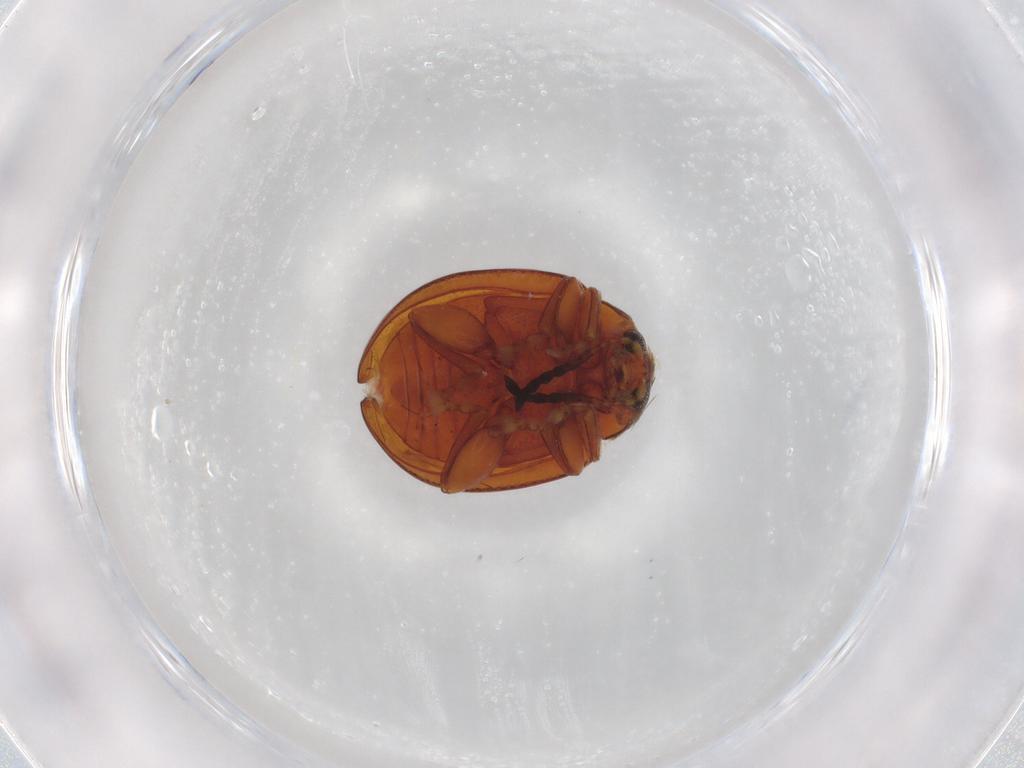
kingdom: Animalia
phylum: Arthropoda
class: Insecta
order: Coleoptera
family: Chrysomelidae
